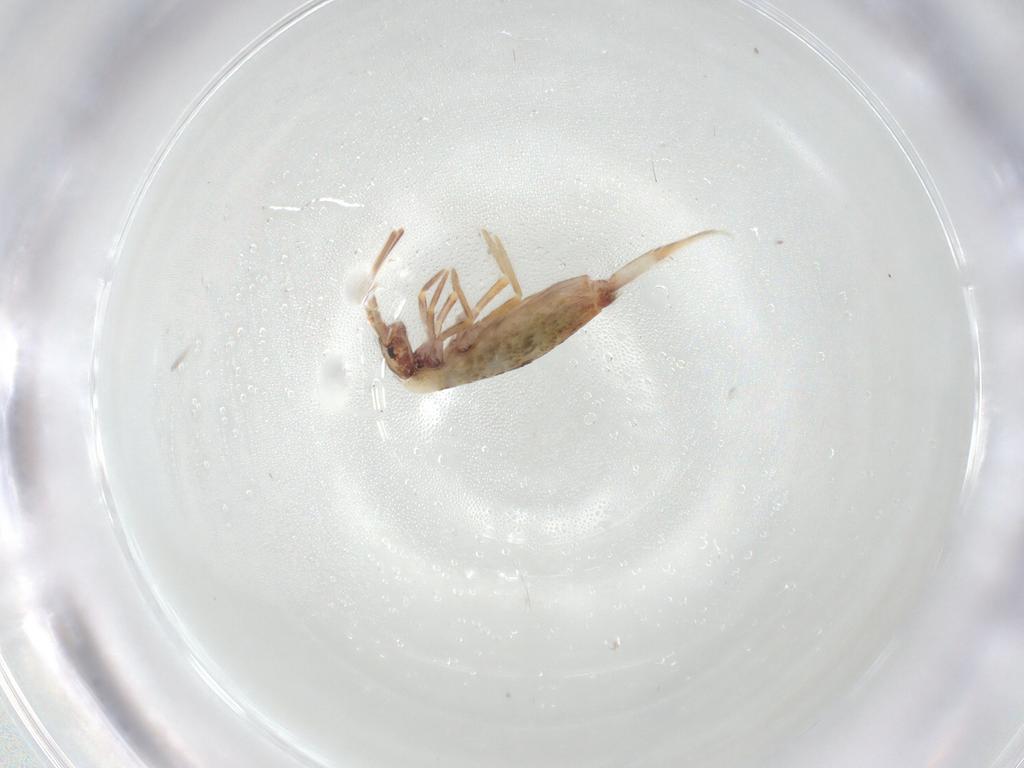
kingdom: Animalia
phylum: Arthropoda
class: Collembola
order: Entomobryomorpha
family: Entomobryidae
